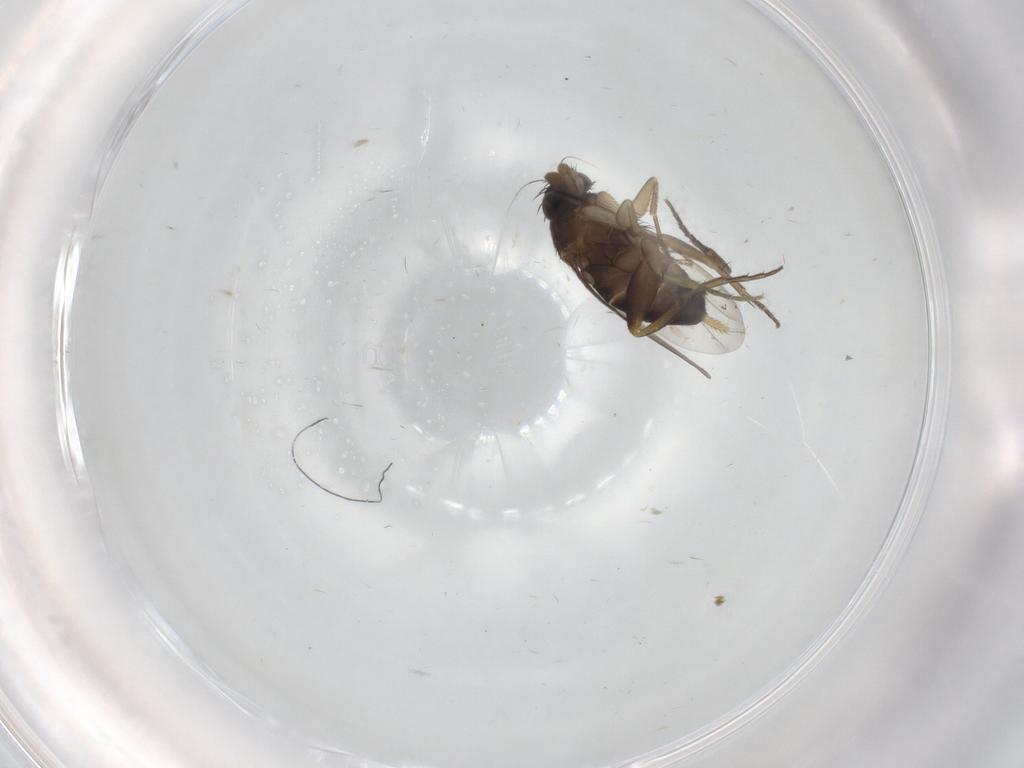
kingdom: Animalia
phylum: Arthropoda
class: Insecta
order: Diptera
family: Phoridae
